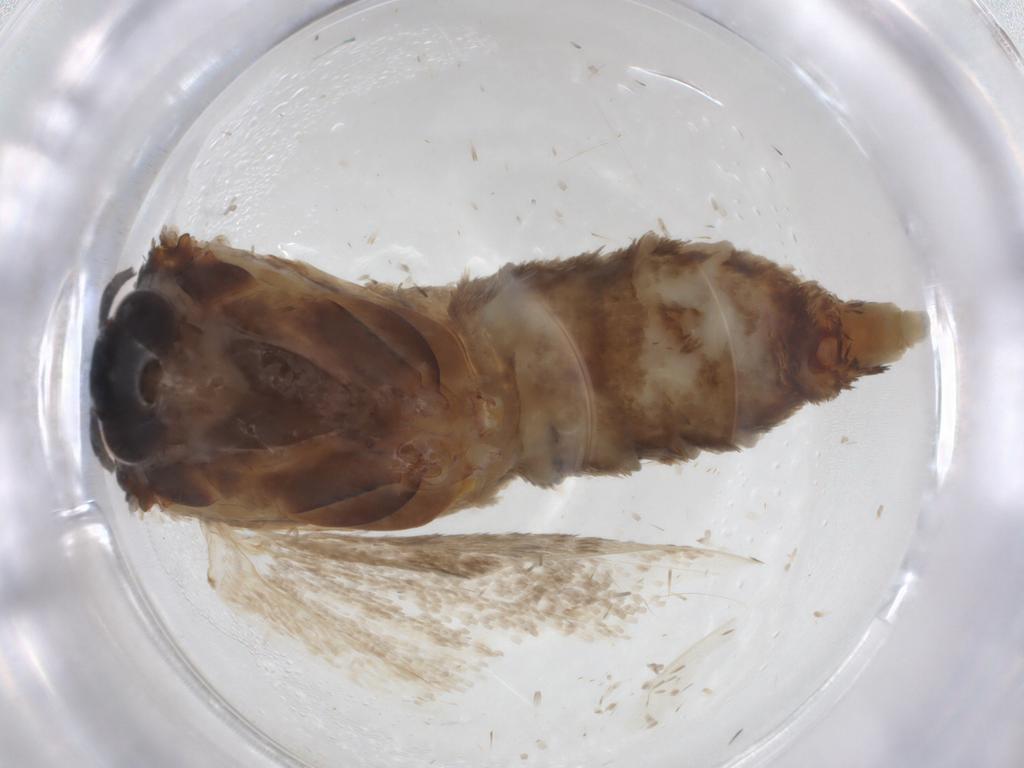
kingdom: Animalia
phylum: Arthropoda
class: Insecta
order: Lepidoptera
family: Oecophoridae
